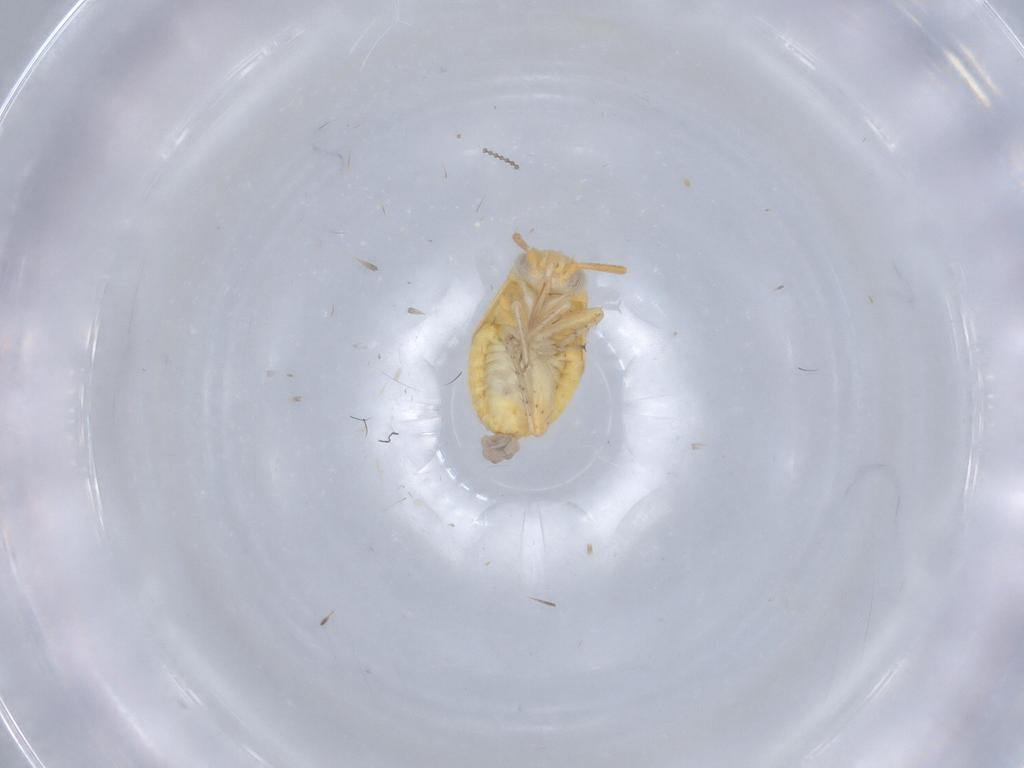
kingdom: Animalia
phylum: Arthropoda
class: Insecta
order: Hemiptera
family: Miridae
